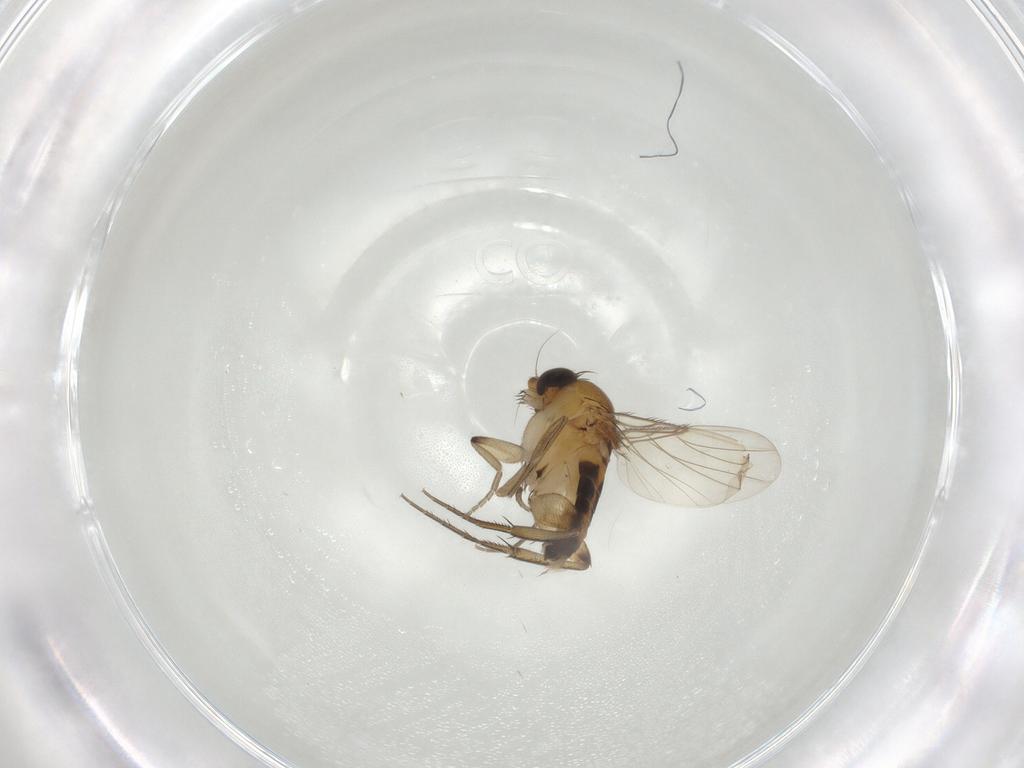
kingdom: Animalia
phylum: Arthropoda
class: Insecta
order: Diptera
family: Phoridae
